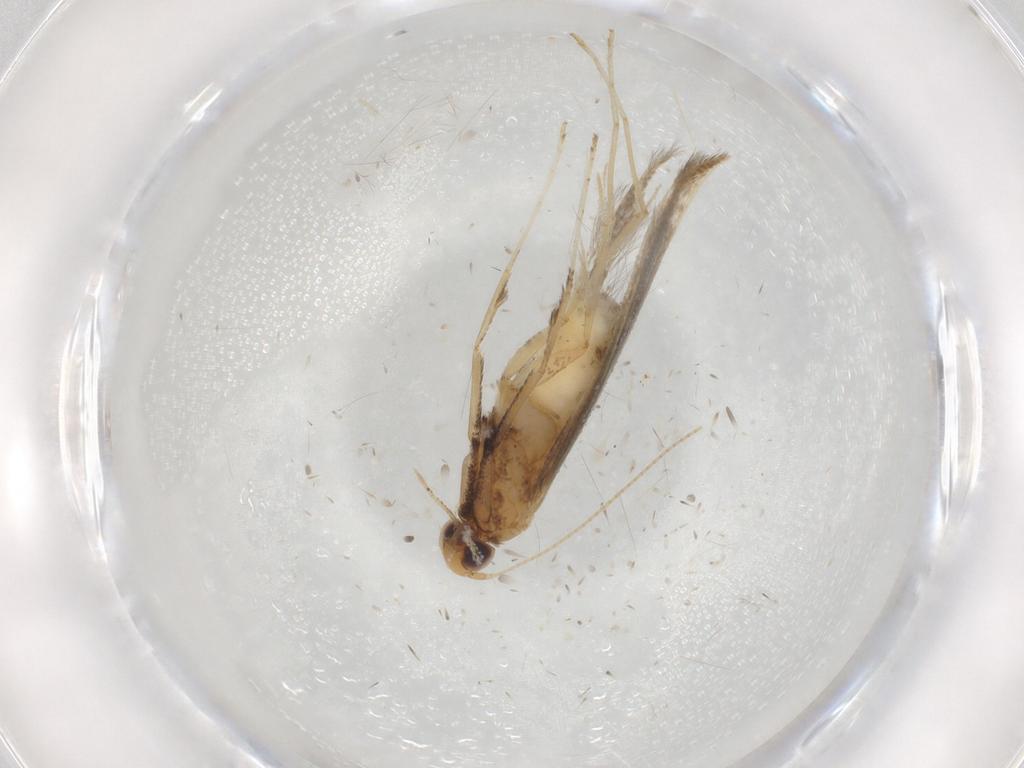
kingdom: Animalia
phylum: Arthropoda
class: Insecta
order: Lepidoptera
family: Gracillariidae
